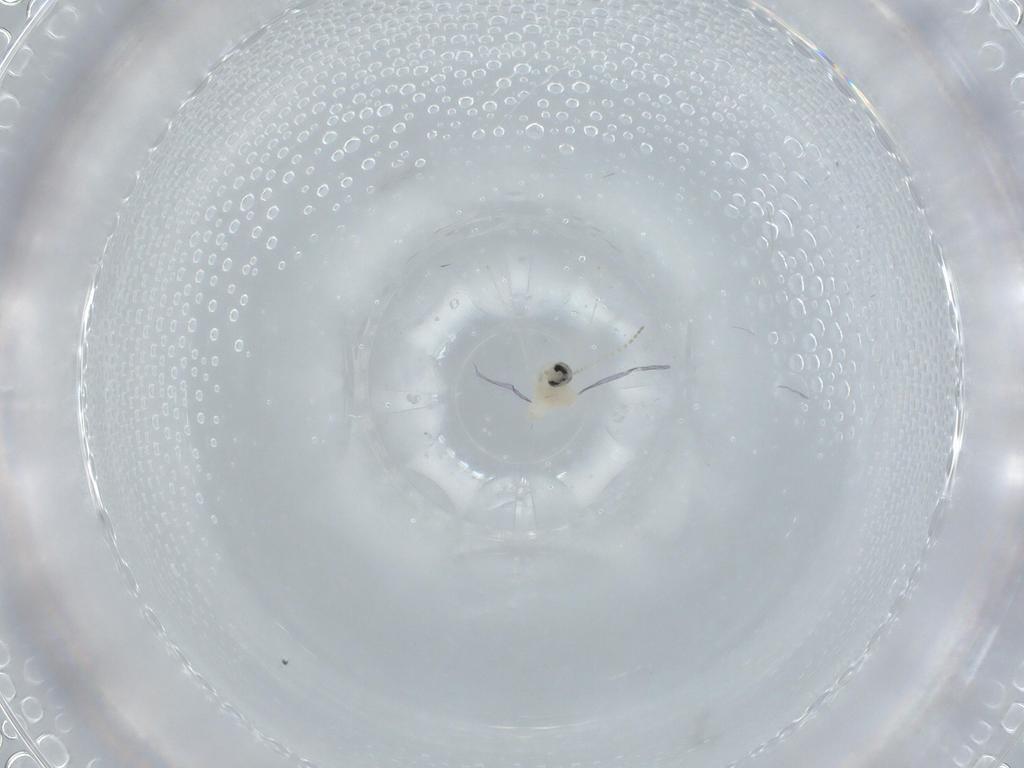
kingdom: Animalia
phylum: Arthropoda
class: Insecta
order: Diptera
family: Cecidomyiidae
